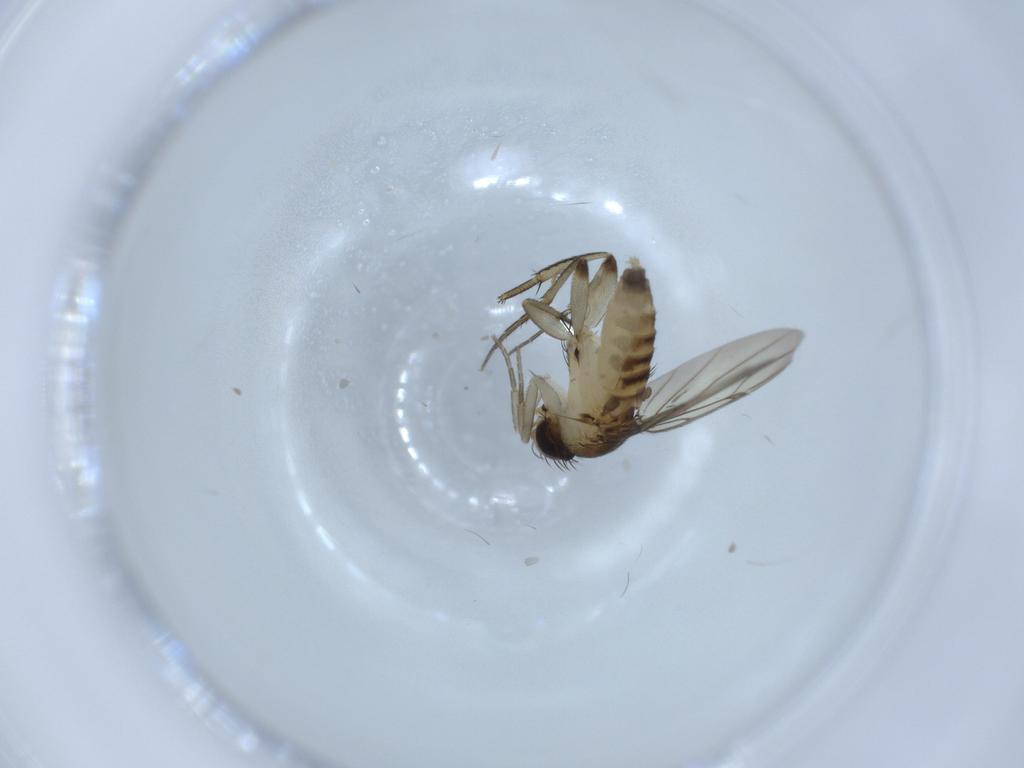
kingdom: Animalia
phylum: Arthropoda
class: Insecta
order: Diptera
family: Phoridae
